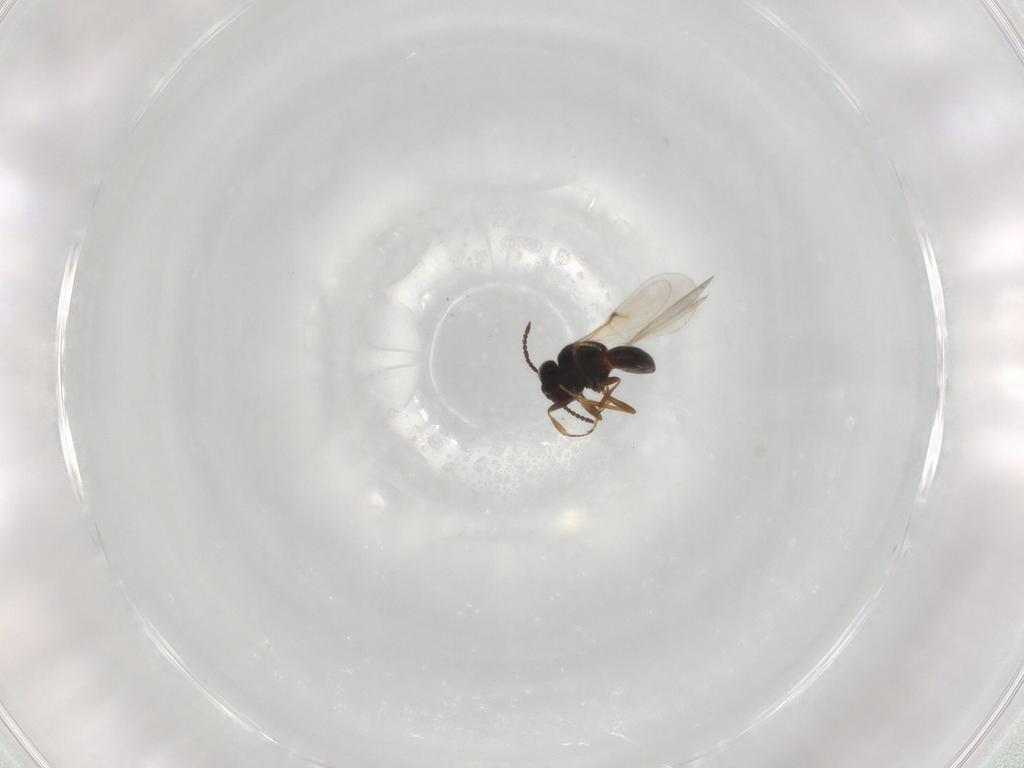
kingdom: Animalia
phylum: Arthropoda
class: Insecta
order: Hymenoptera
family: Scelionidae
